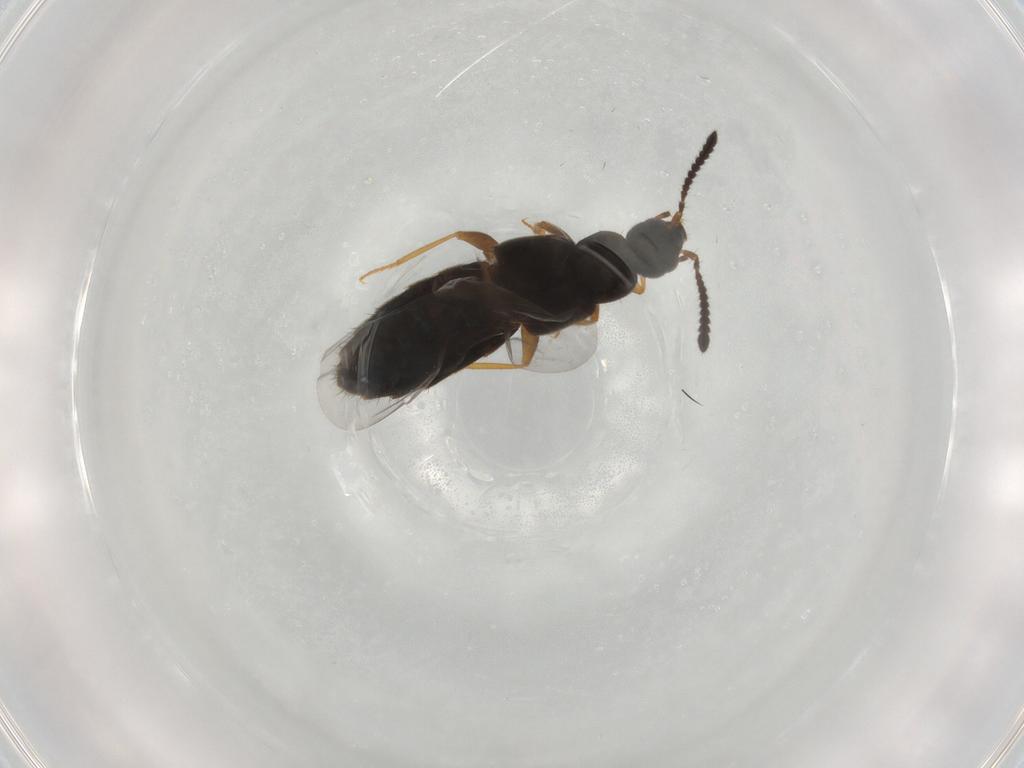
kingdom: Animalia
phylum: Arthropoda
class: Insecta
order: Coleoptera
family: Staphylinidae
